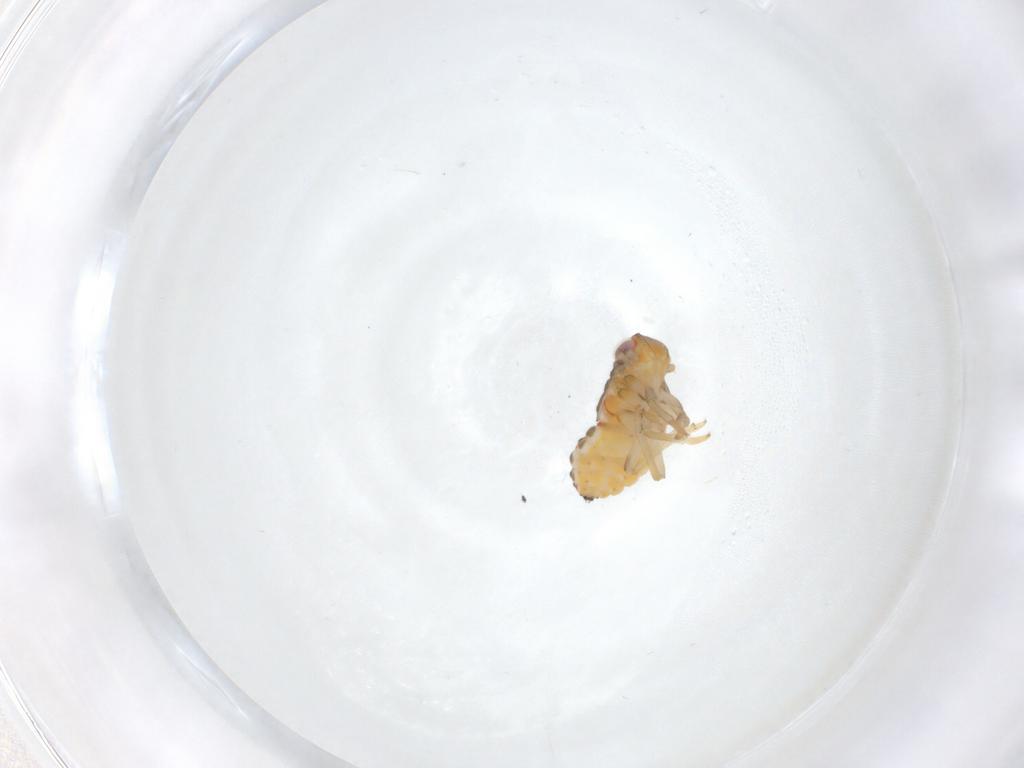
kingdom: Animalia
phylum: Arthropoda
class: Insecta
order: Hemiptera
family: Issidae
